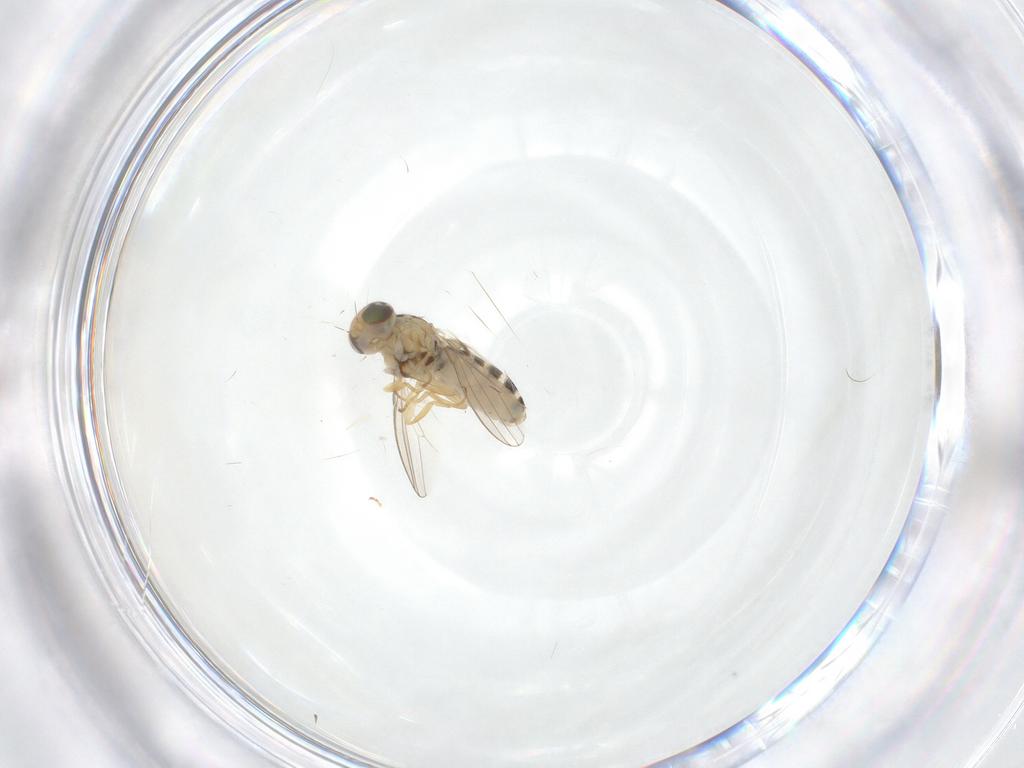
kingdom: Animalia
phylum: Arthropoda
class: Insecta
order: Diptera
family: Chyromyidae
